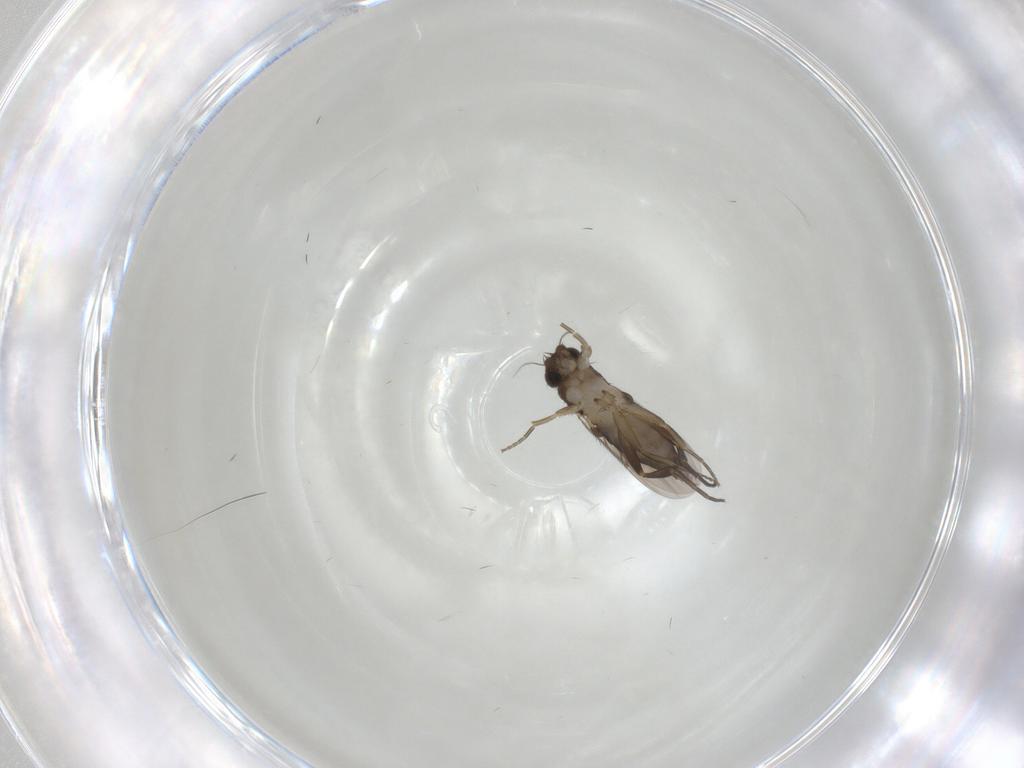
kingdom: Animalia
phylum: Arthropoda
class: Insecta
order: Diptera
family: Phoridae
